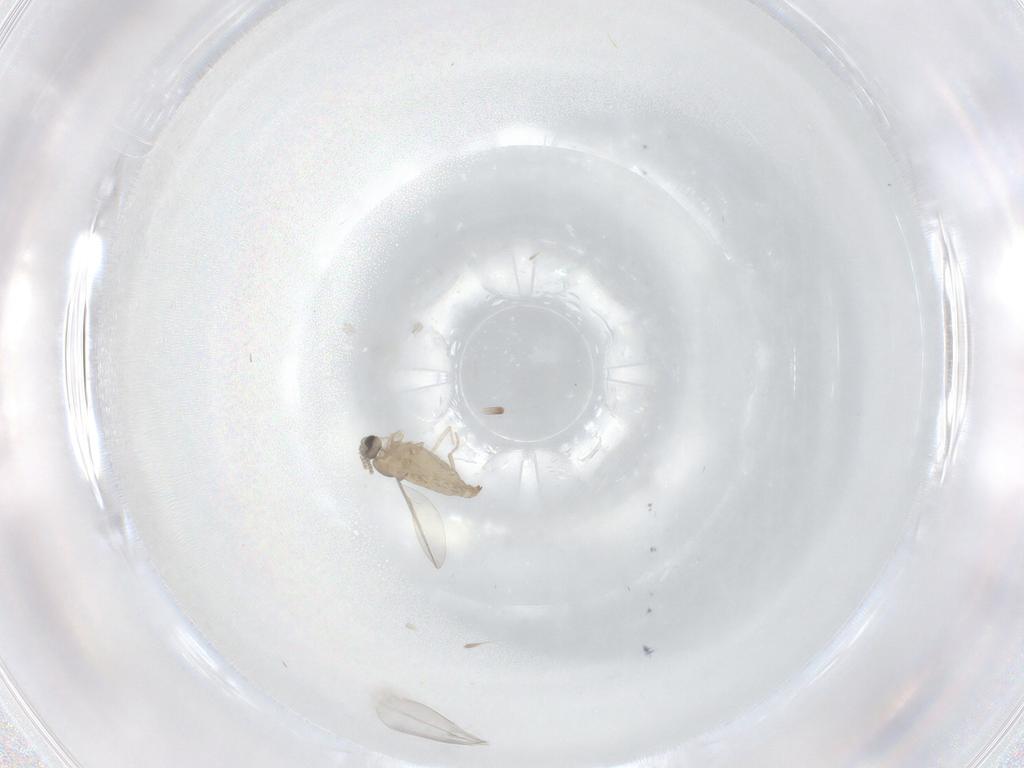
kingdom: Animalia
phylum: Arthropoda
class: Insecta
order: Diptera
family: Cecidomyiidae
